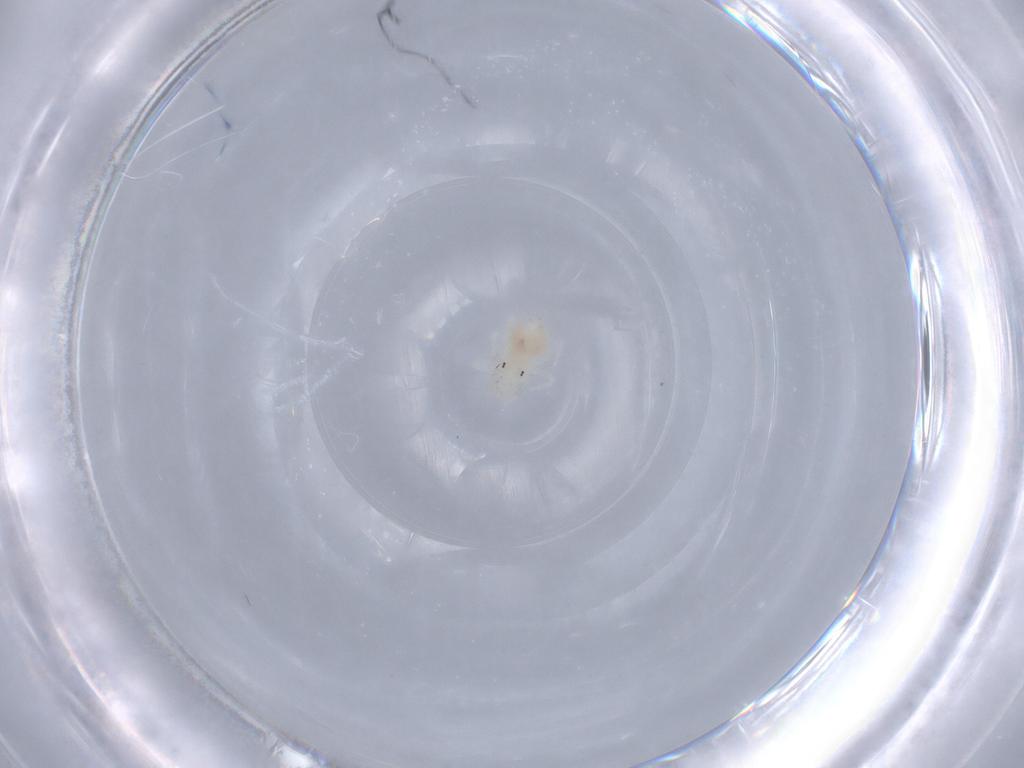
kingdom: Animalia
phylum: Arthropoda
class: Arachnida
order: Trombidiformes
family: Anystidae
